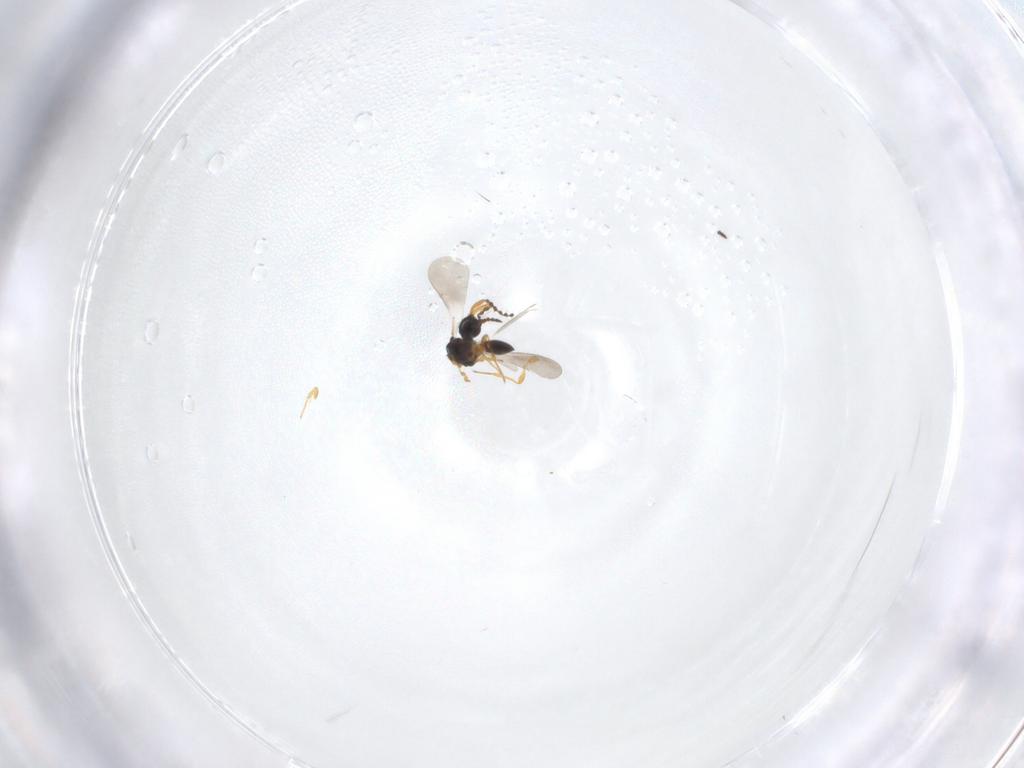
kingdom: Animalia
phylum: Arthropoda
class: Insecta
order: Hymenoptera
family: Platygastridae
